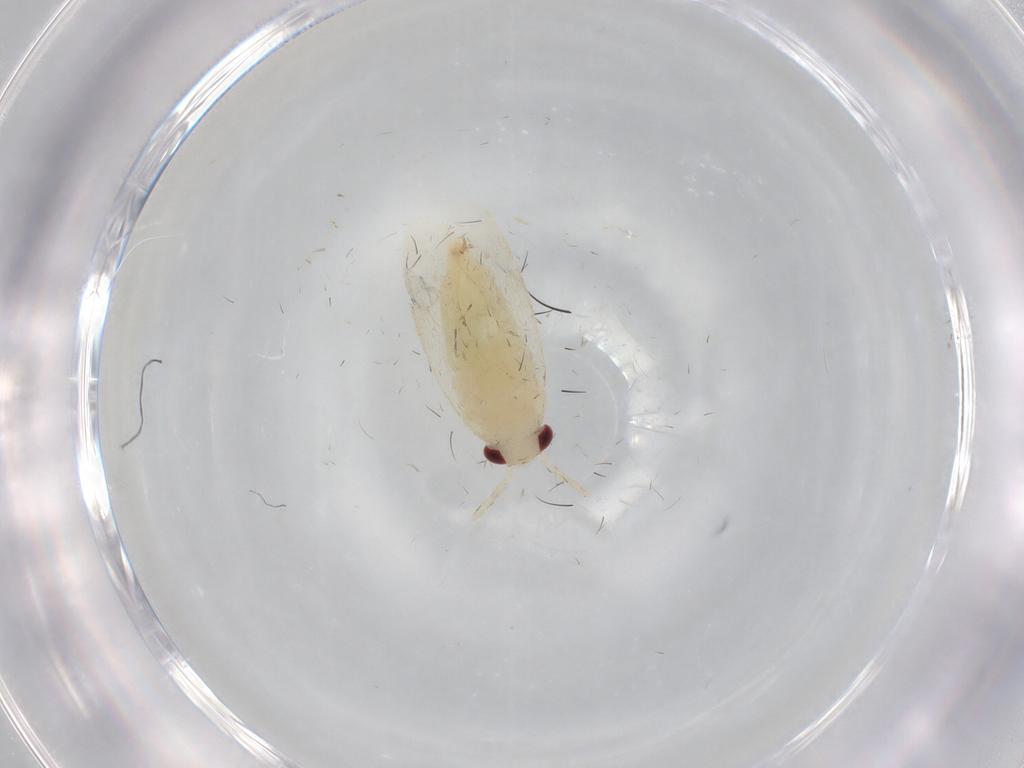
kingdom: Animalia
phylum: Arthropoda
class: Insecta
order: Hemiptera
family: Miridae
